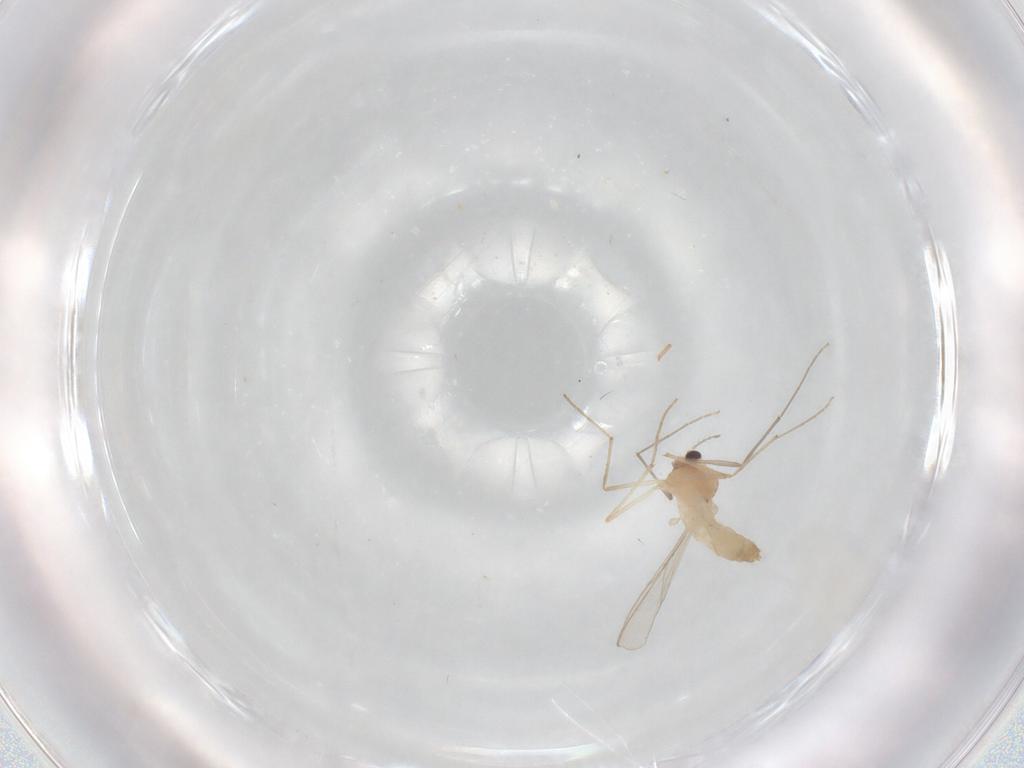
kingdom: Animalia
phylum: Arthropoda
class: Insecta
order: Diptera
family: Chironomidae
